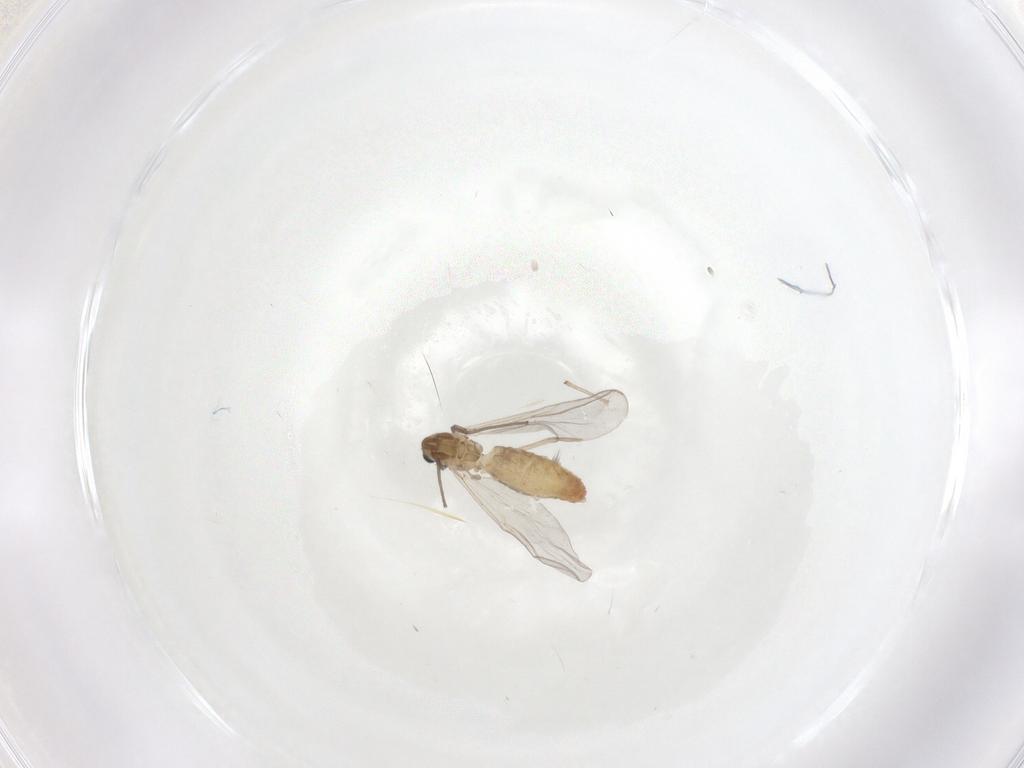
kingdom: Animalia
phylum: Arthropoda
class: Insecta
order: Diptera
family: Chironomidae
